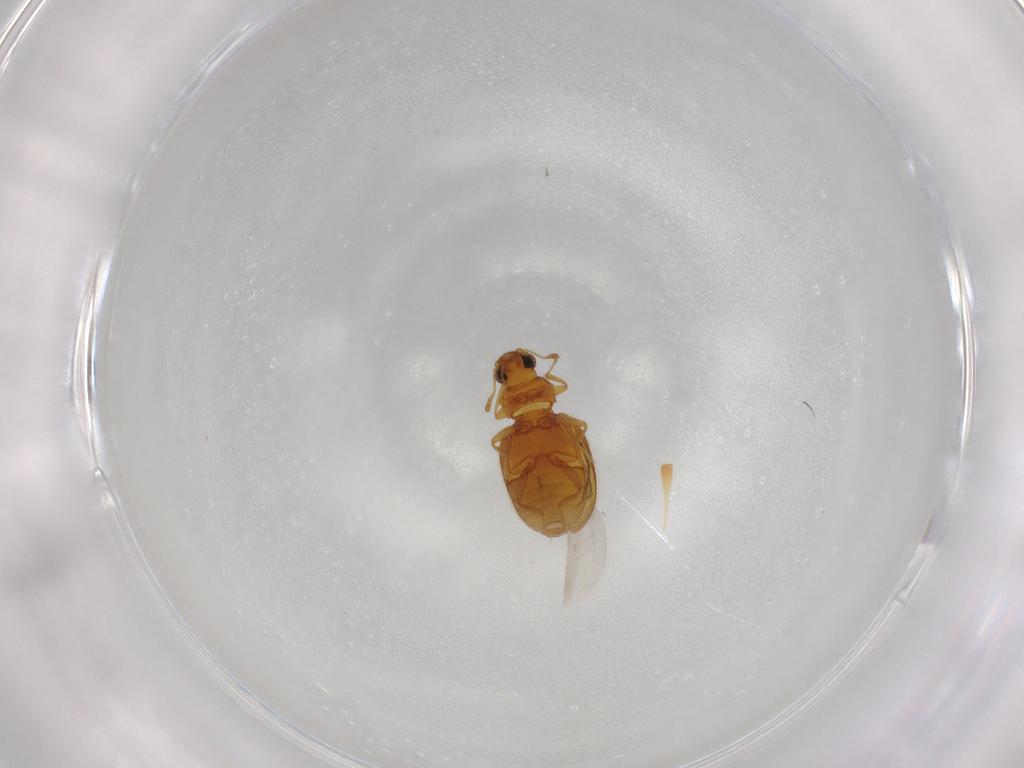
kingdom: Animalia
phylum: Arthropoda
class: Insecta
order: Coleoptera
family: Latridiidae
